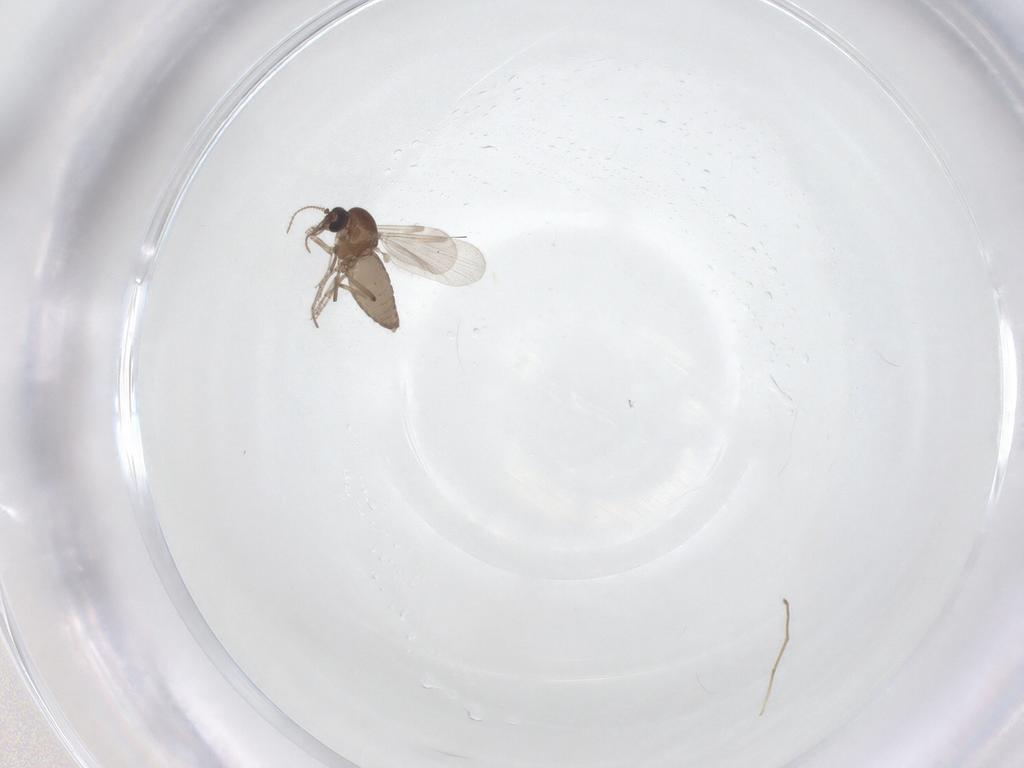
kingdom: Animalia
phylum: Arthropoda
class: Insecta
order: Diptera
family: Ceratopogonidae
